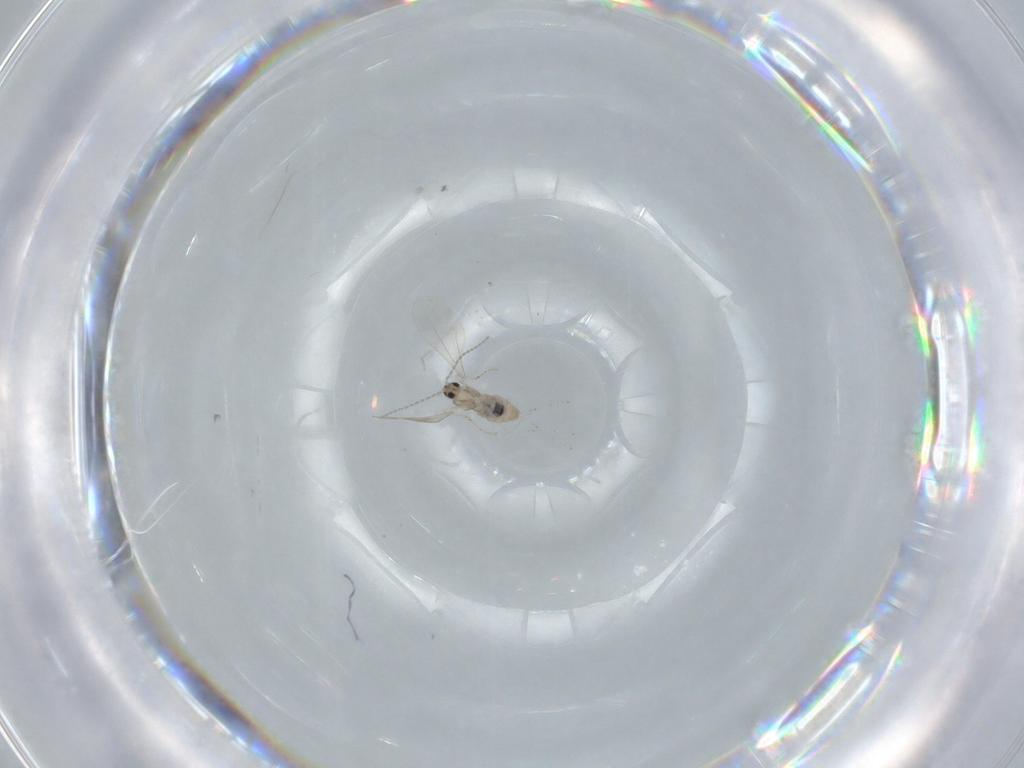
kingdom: Animalia
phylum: Arthropoda
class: Insecta
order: Diptera
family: Cecidomyiidae
